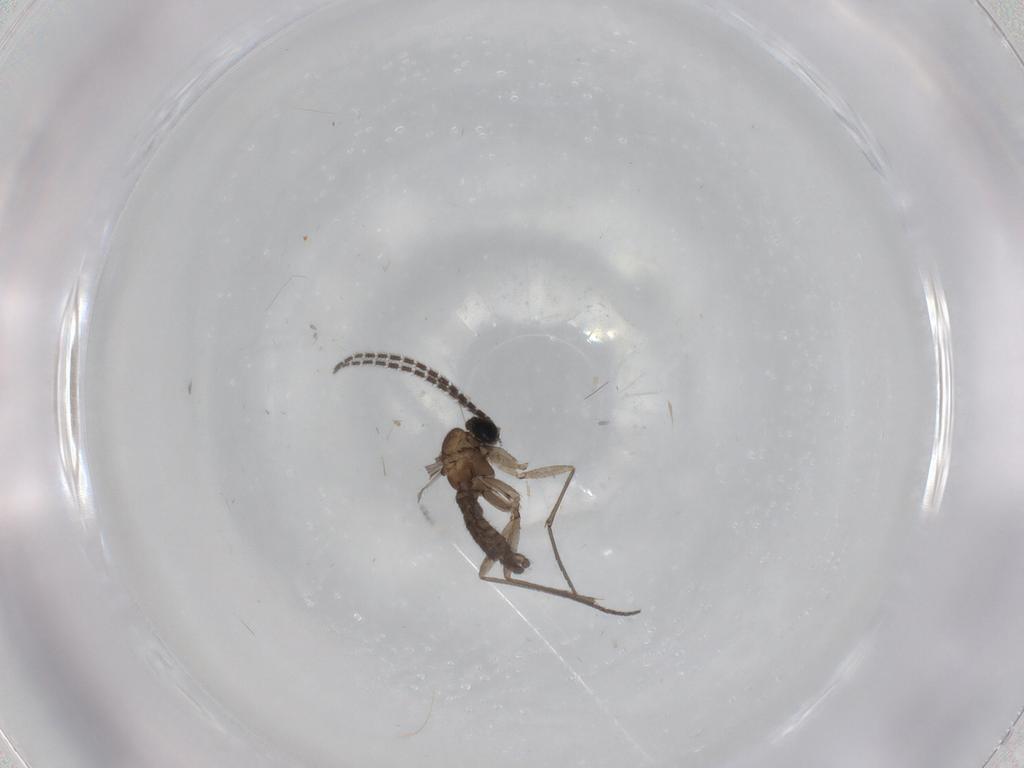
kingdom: Animalia
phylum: Arthropoda
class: Insecta
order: Diptera
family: Sciaridae
